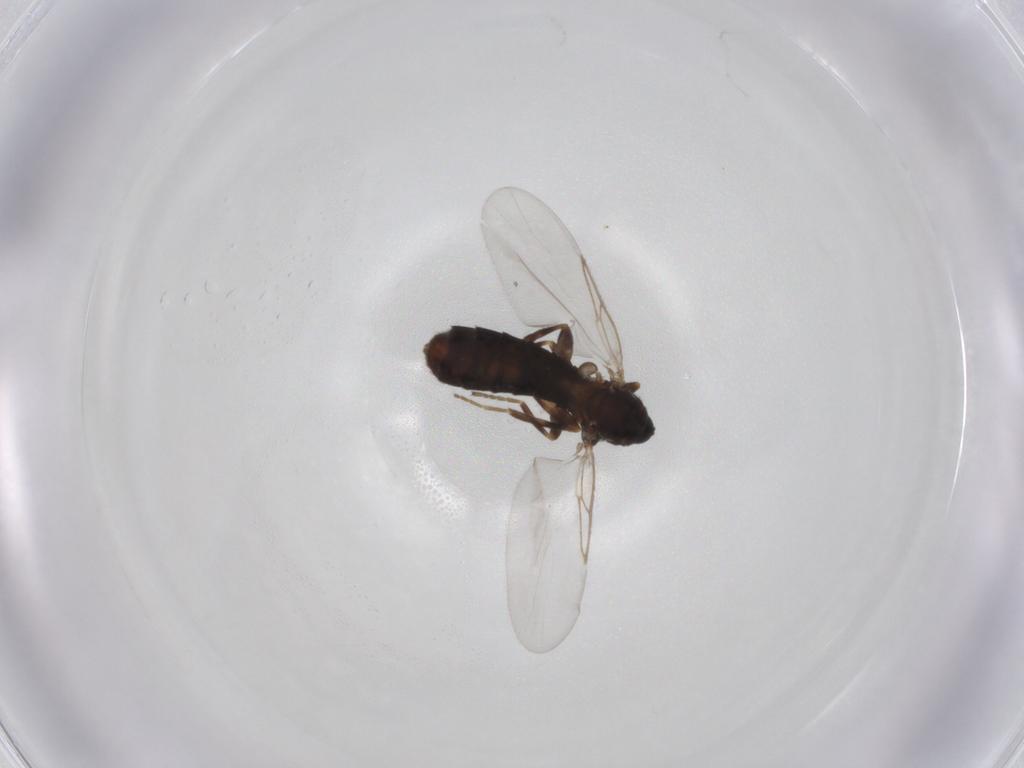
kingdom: Animalia
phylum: Arthropoda
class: Insecta
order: Diptera
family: Scatopsidae
